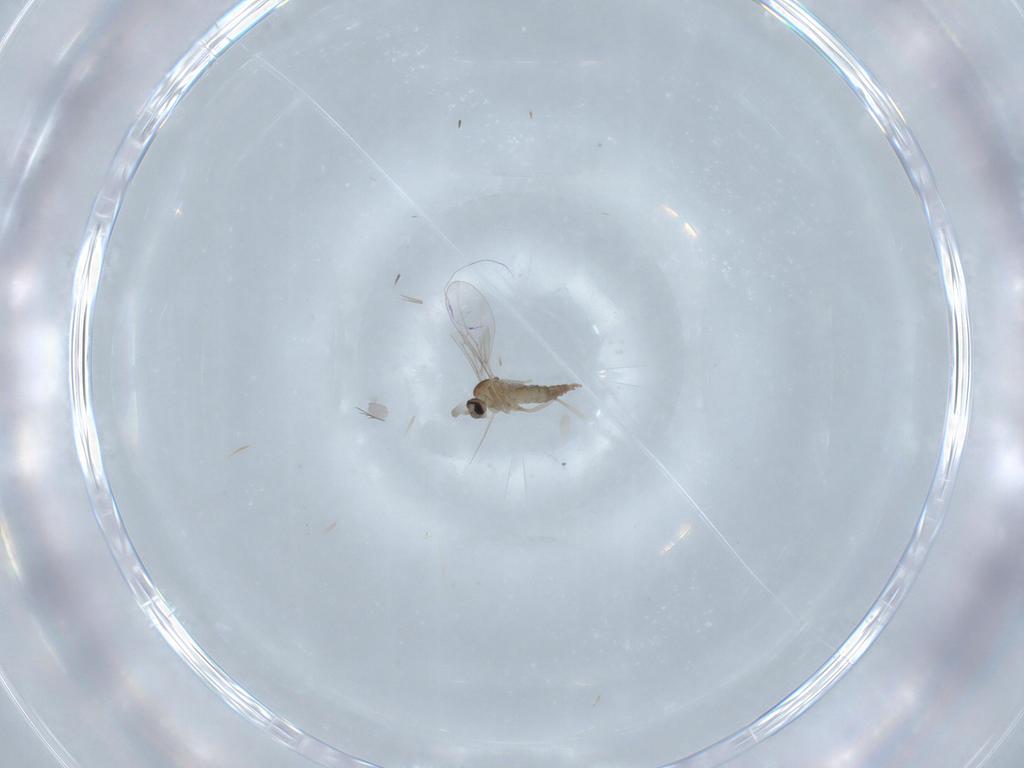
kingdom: Animalia
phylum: Arthropoda
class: Insecta
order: Diptera
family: Cecidomyiidae
